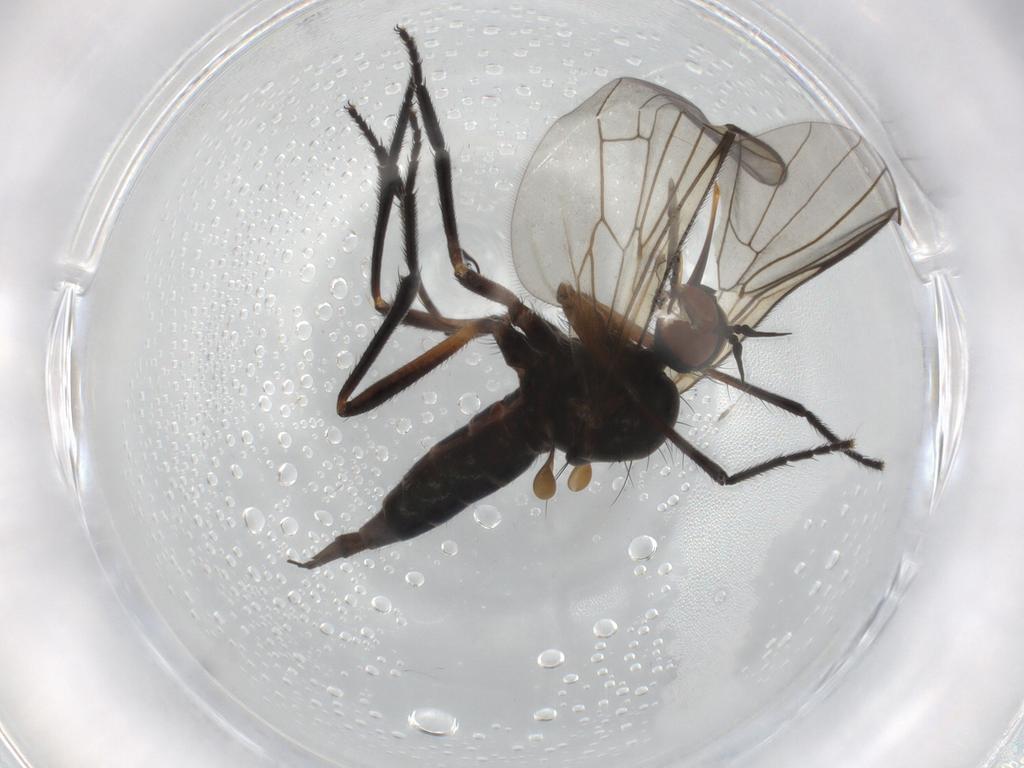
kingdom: Animalia
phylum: Arthropoda
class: Insecta
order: Diptera
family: Empididae
